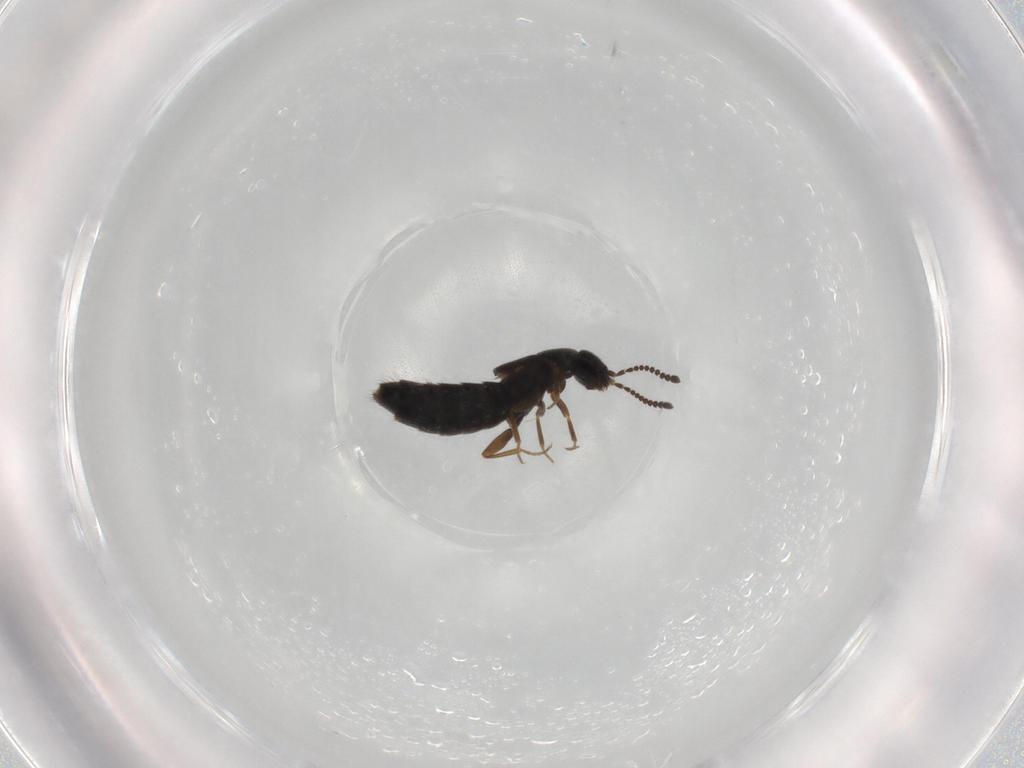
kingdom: Animalia
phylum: Arthropoda
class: Insecta
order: Coleoptera
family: Staphylinidae
